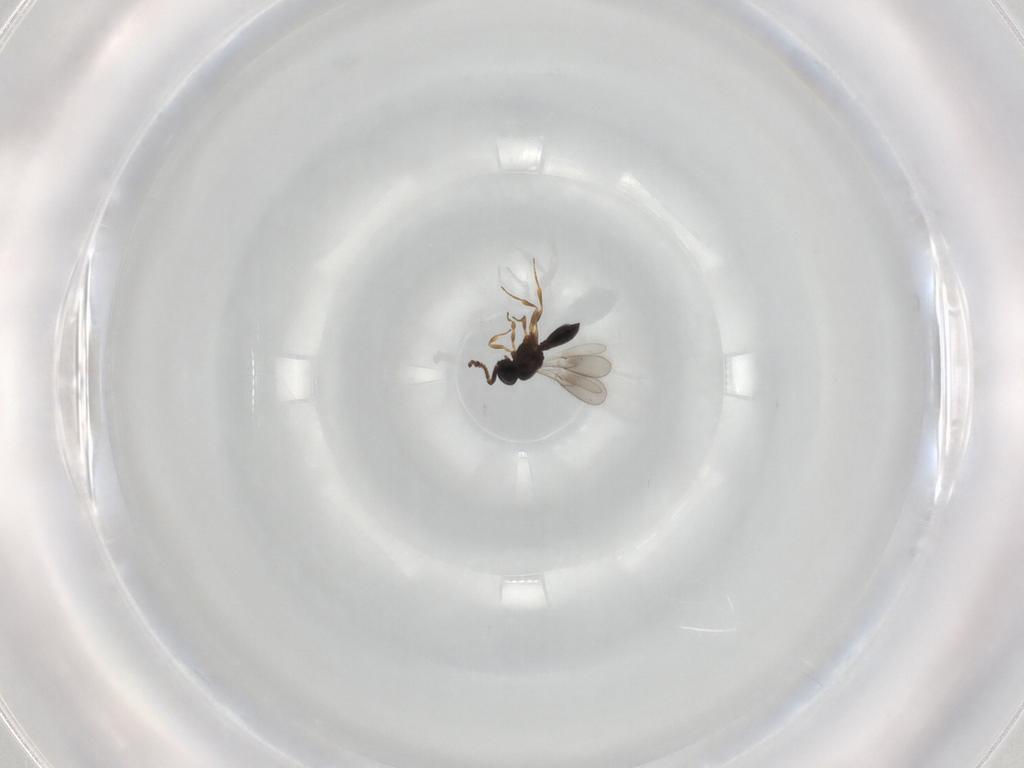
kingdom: Animalia
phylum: Arthropoda
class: Insecta
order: Hymenoptera
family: Scelionidae
